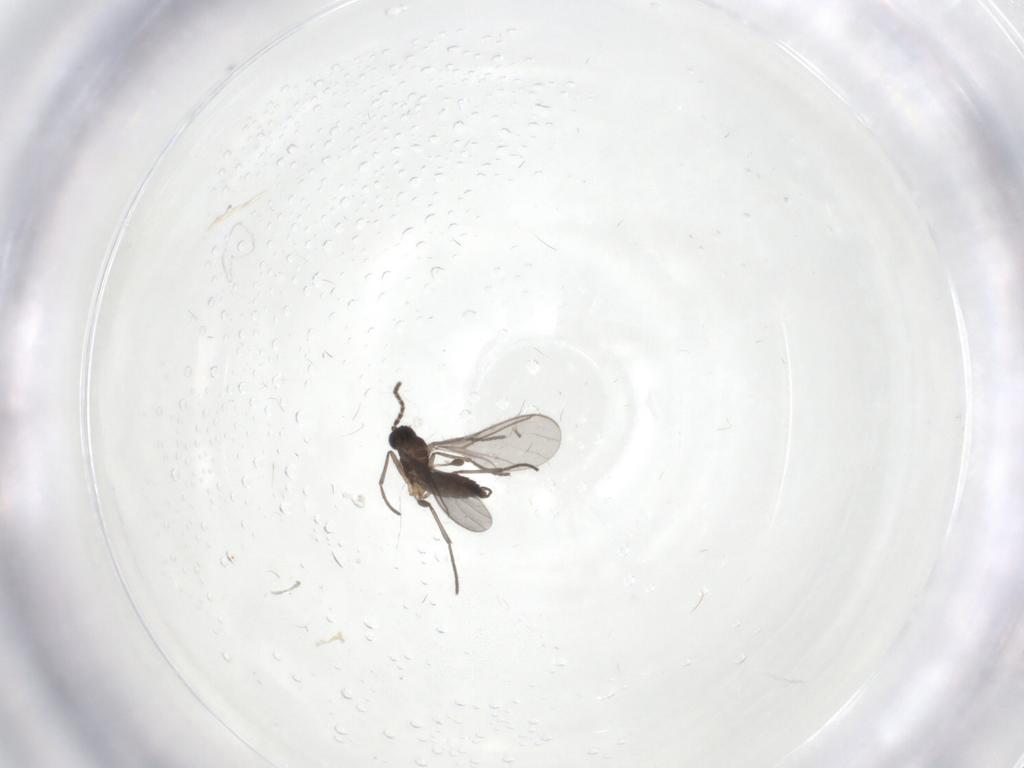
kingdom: Animalia
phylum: Arthropoda
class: Insecta
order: Diptera
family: Sciaridae
